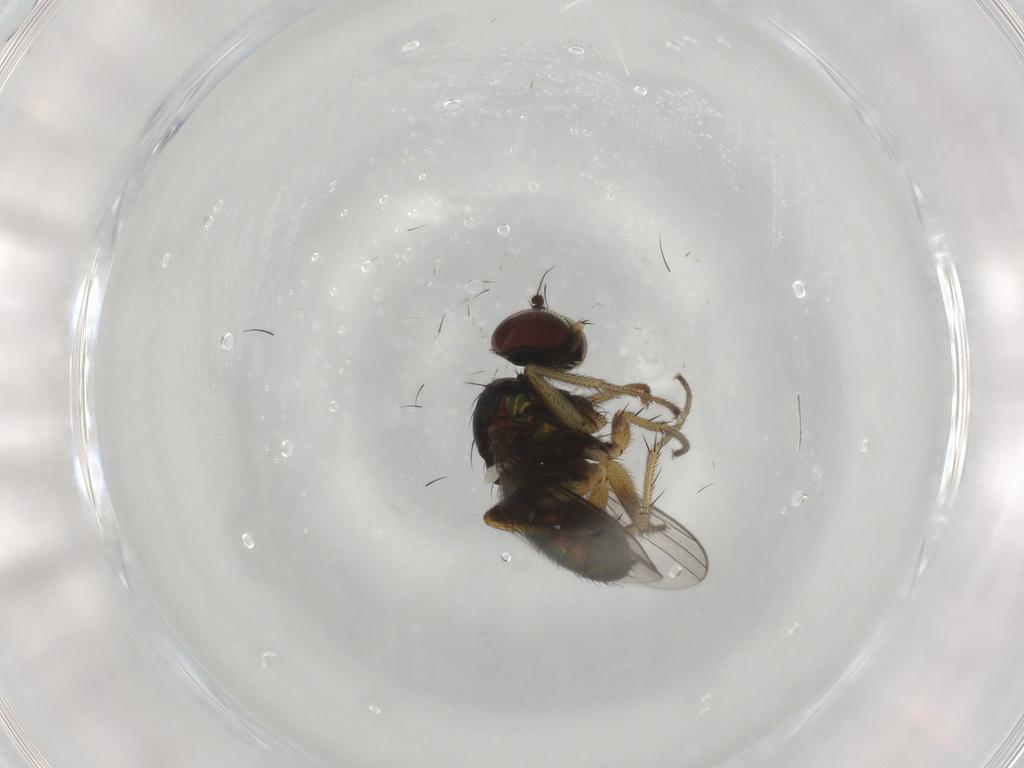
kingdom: Animalia
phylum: Arthropoda
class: Insecta
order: Diptera
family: Dolichopodidae
